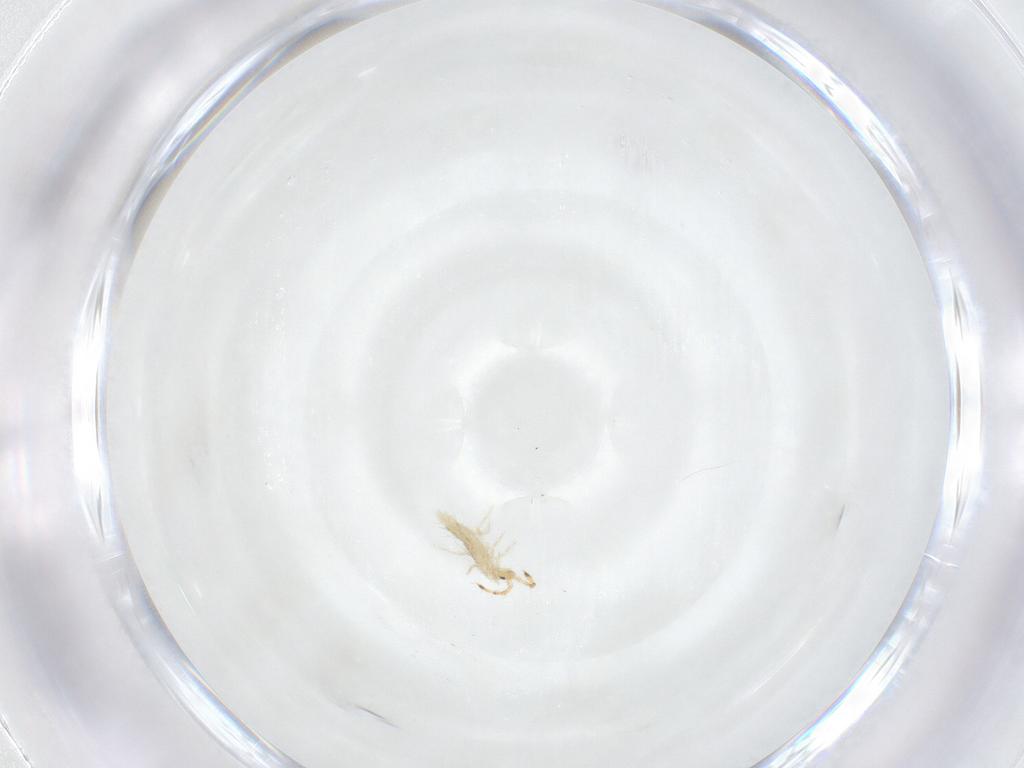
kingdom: Animalia
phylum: Arthropoda
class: Collembola
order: Entomobryomorpha
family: Entomobryidae
